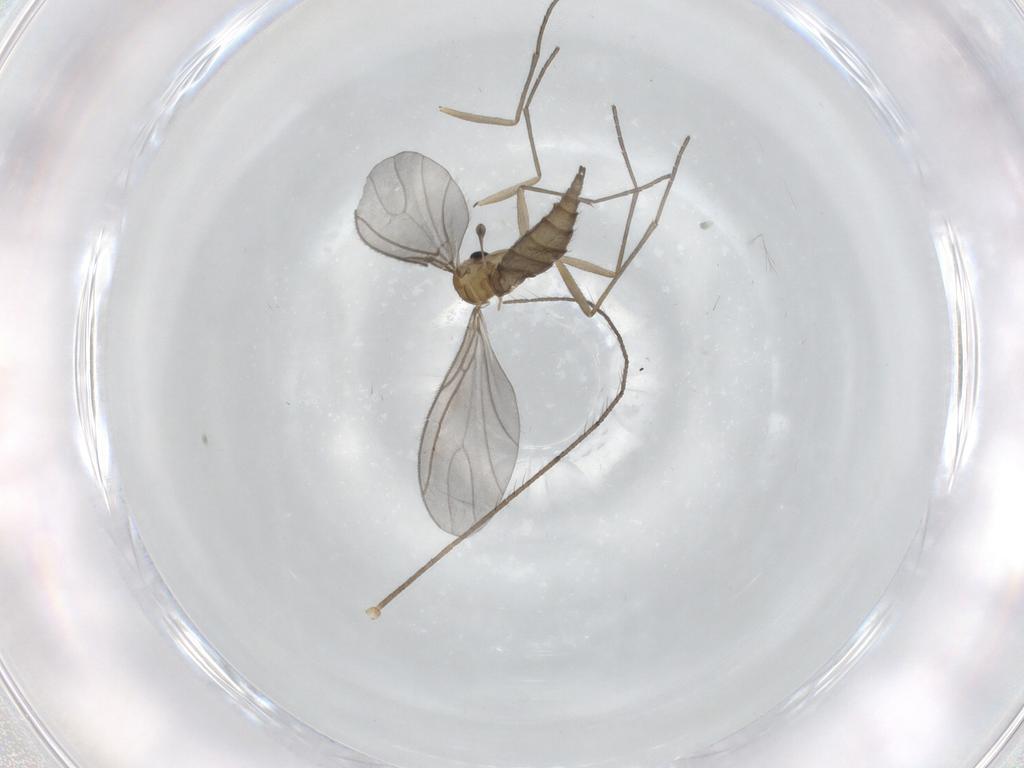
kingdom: Animalia
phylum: Arthropoda
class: Insecta
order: Diptera
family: Sciaridae
